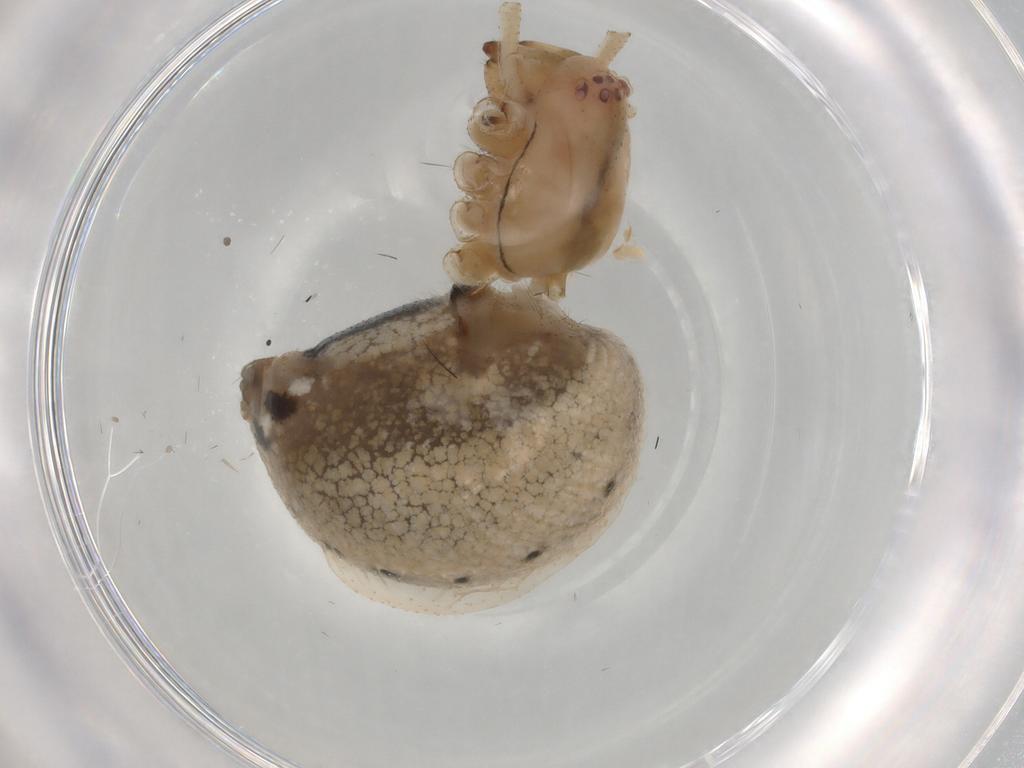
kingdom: Animalia
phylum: Arthropoda
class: Arachnida
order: Araneae
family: Theridiidae
